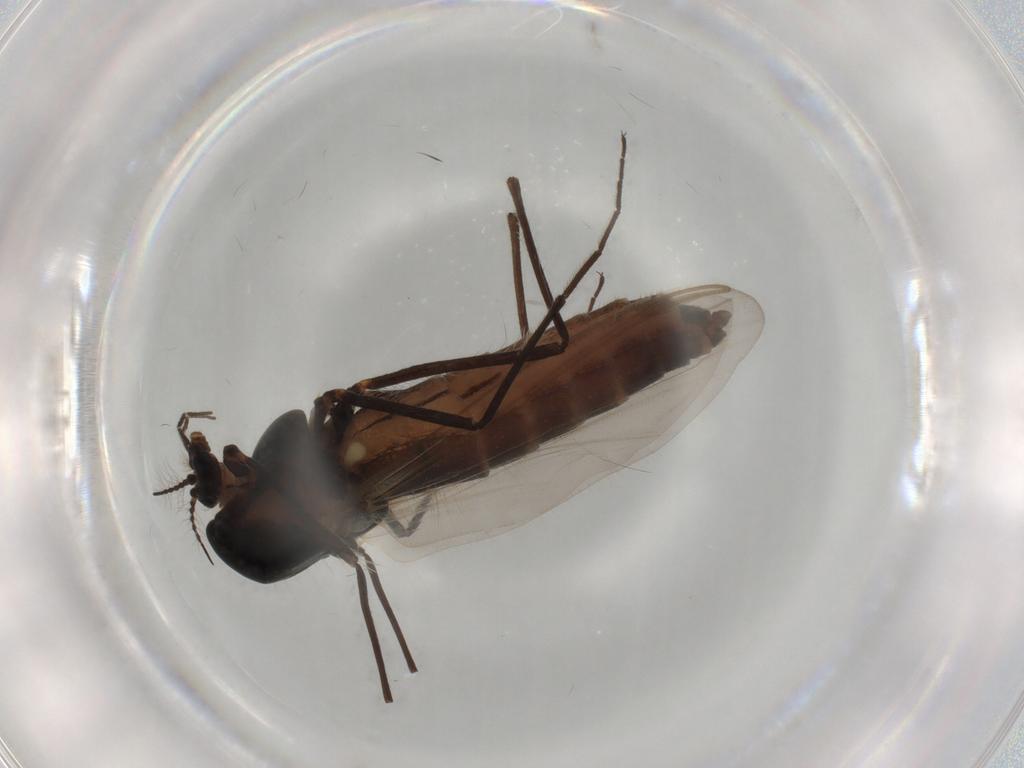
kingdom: Animalia
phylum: Arthropoda
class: Insecta
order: Diptera
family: Chironomidae
